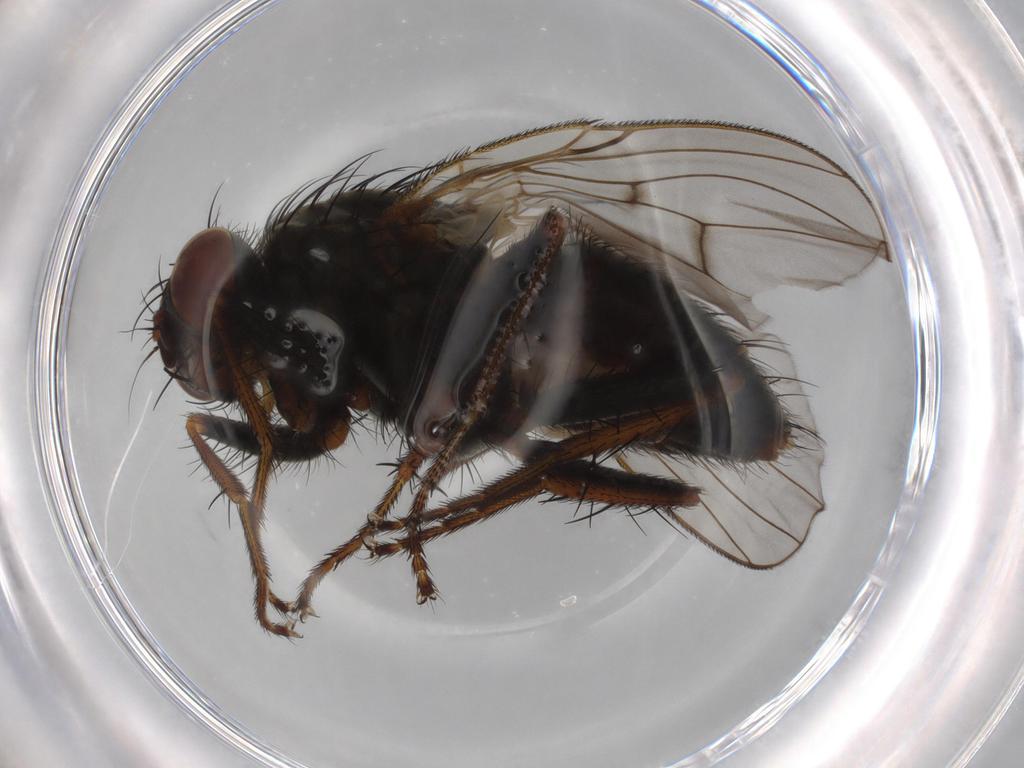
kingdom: Animalia
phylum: Arthropoda
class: Insecta
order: Diptera
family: Muscidae
